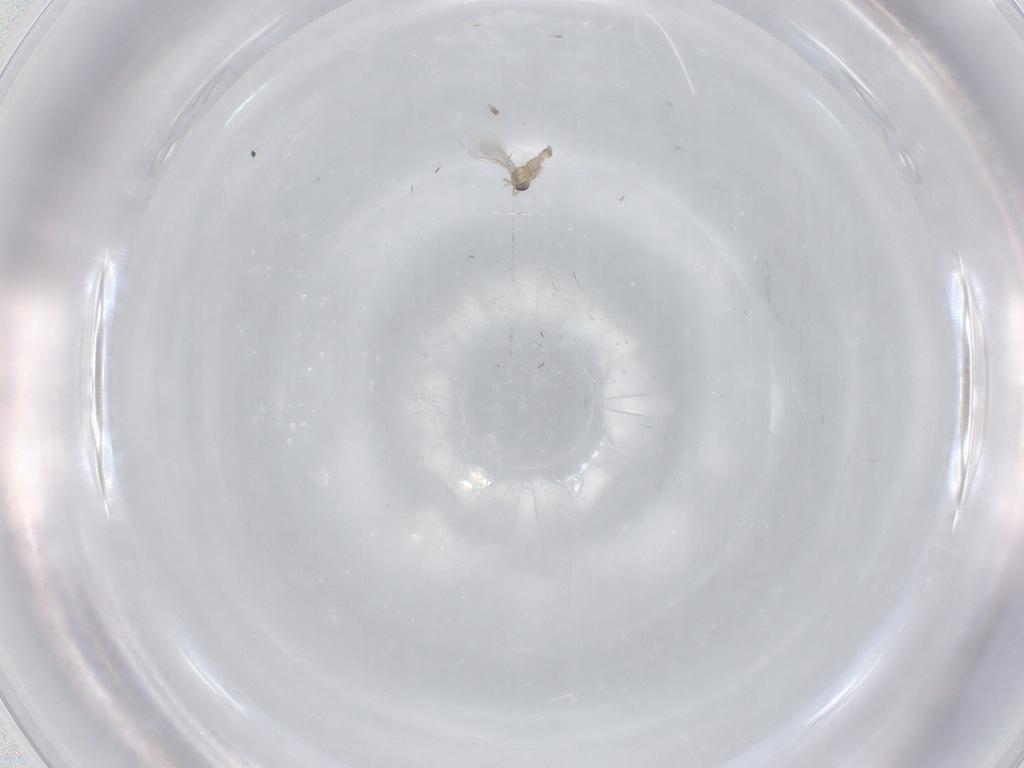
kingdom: Animalia
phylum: Arthropoda
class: Insecta
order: Diptera
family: Cecidomyiidae
